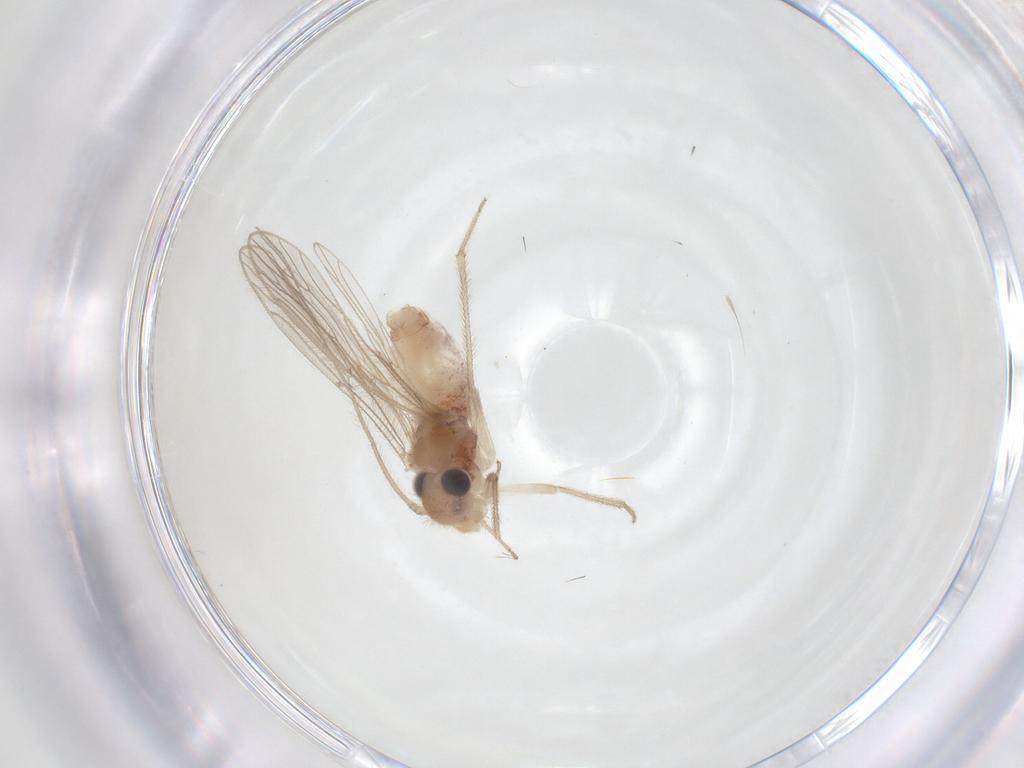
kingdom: Animalia
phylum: Arthropoda
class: Insecta
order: Psocodea
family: Cladiopsocidae
